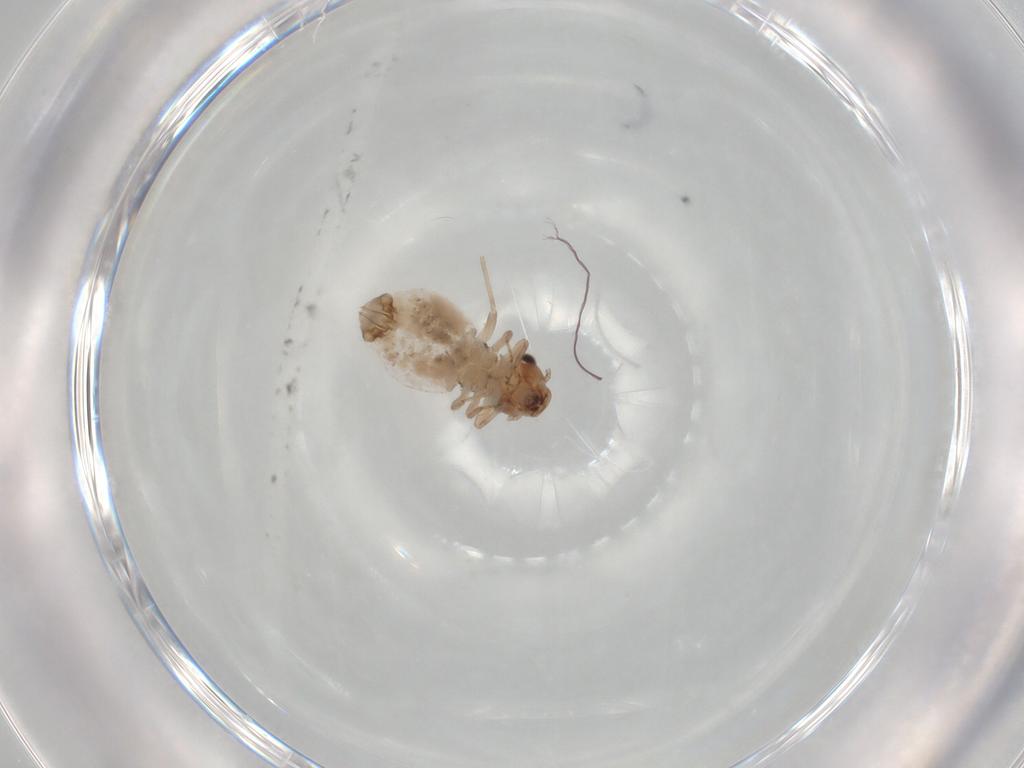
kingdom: Animalia
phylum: Arthropoda
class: Insecta
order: Psocodea
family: Trogiidae
